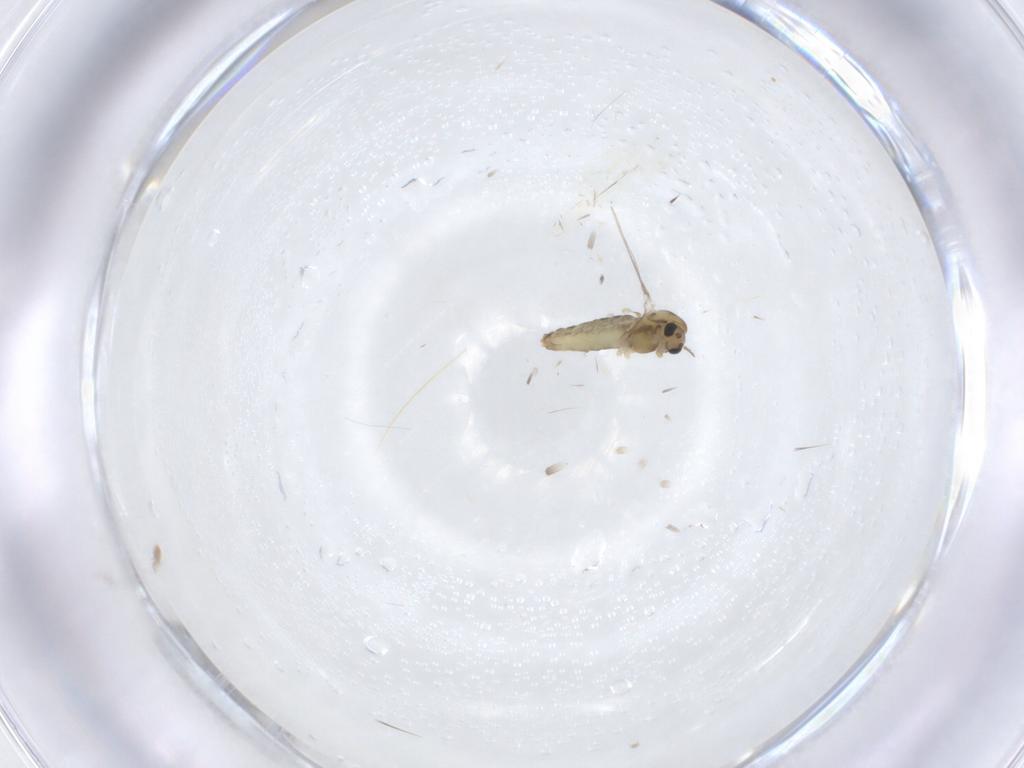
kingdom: Animalia
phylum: Arthropoda
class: Insecta
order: Diptera
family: Chironomidae
